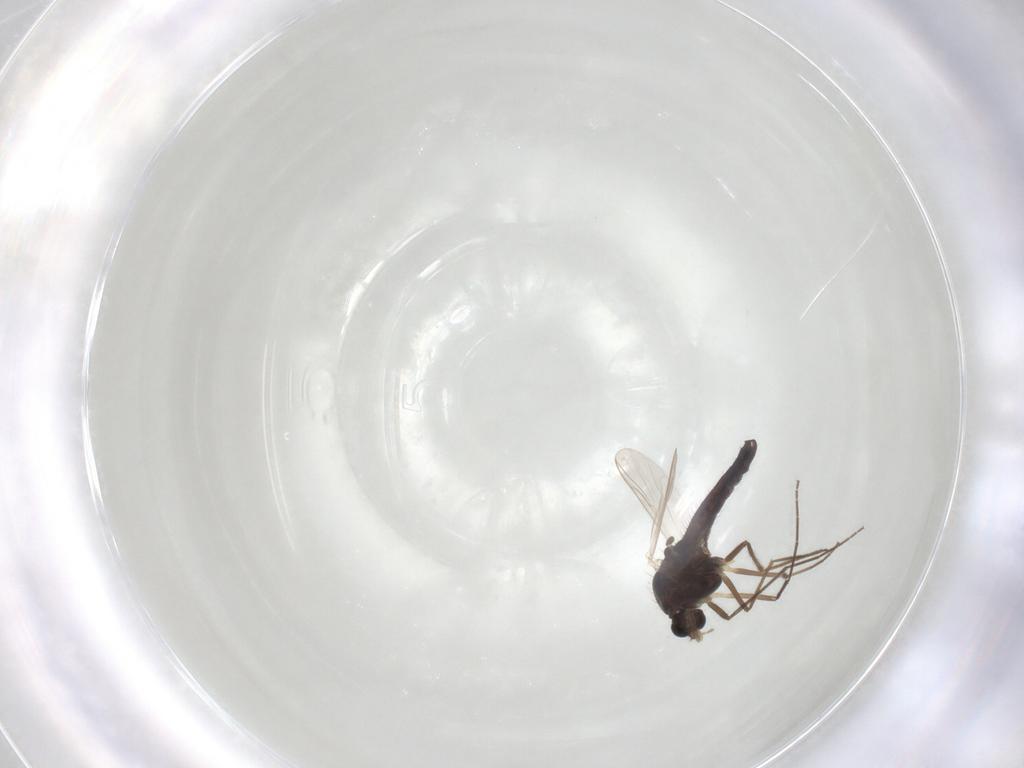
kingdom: Animalia
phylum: Arthropoda
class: Insecta
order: Diptera
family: Chironomidae
